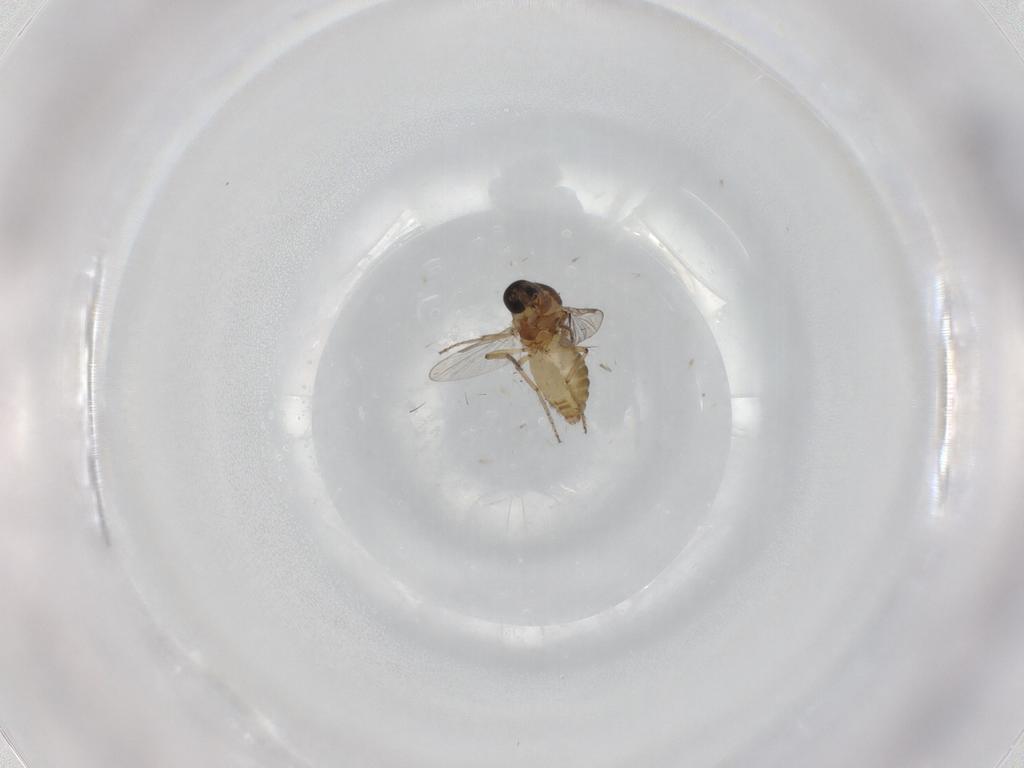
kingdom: Animalia
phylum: Arthropoda
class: Insecta
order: Diptera
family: Ceratopogonidae
